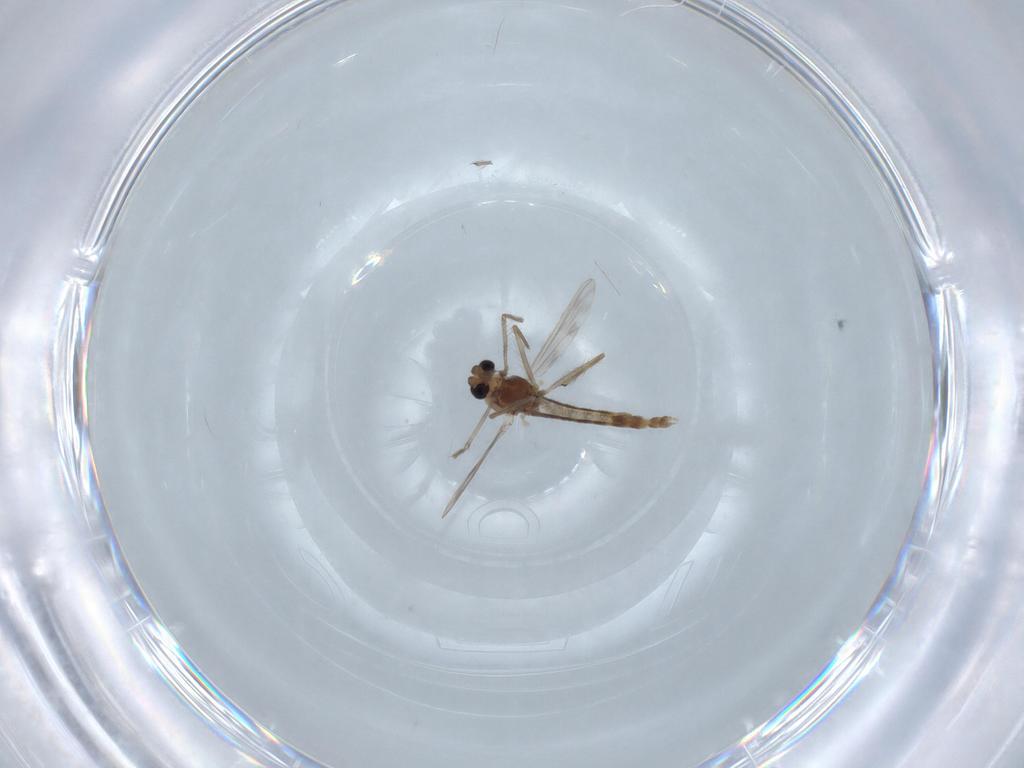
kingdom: Animalia
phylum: Arthropoda
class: Insecta
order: Diptera
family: Chironomidae
